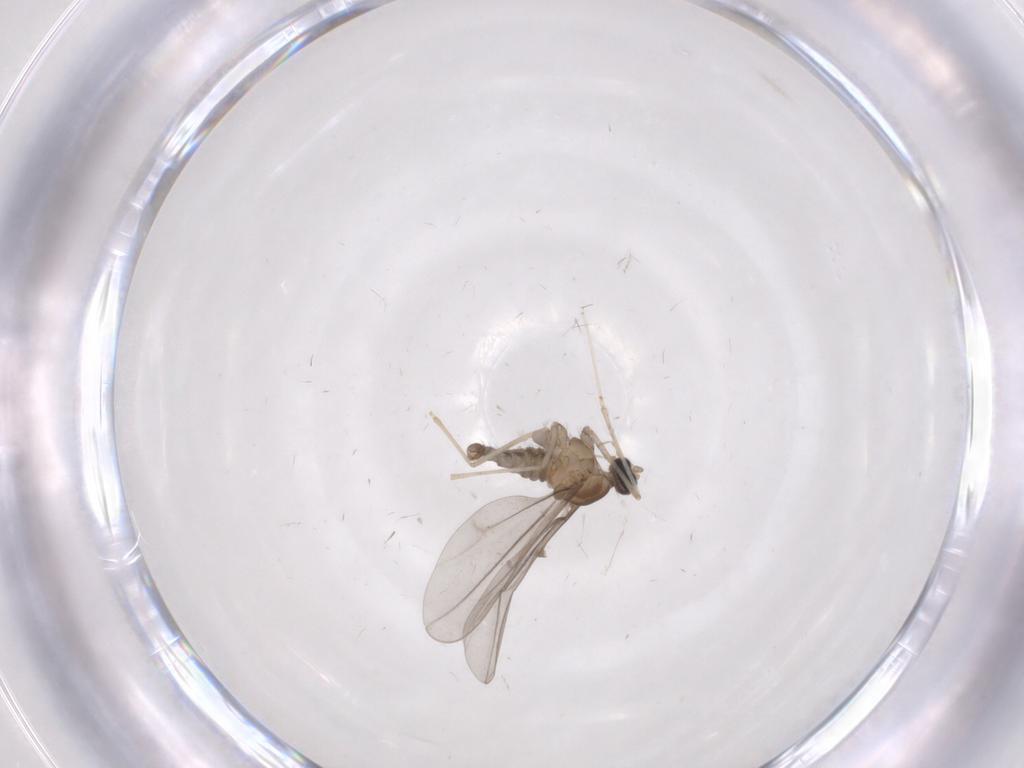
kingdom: Animalia
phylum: Arthropoda
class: Insecta
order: Diptera
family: Cecidomyiidae
